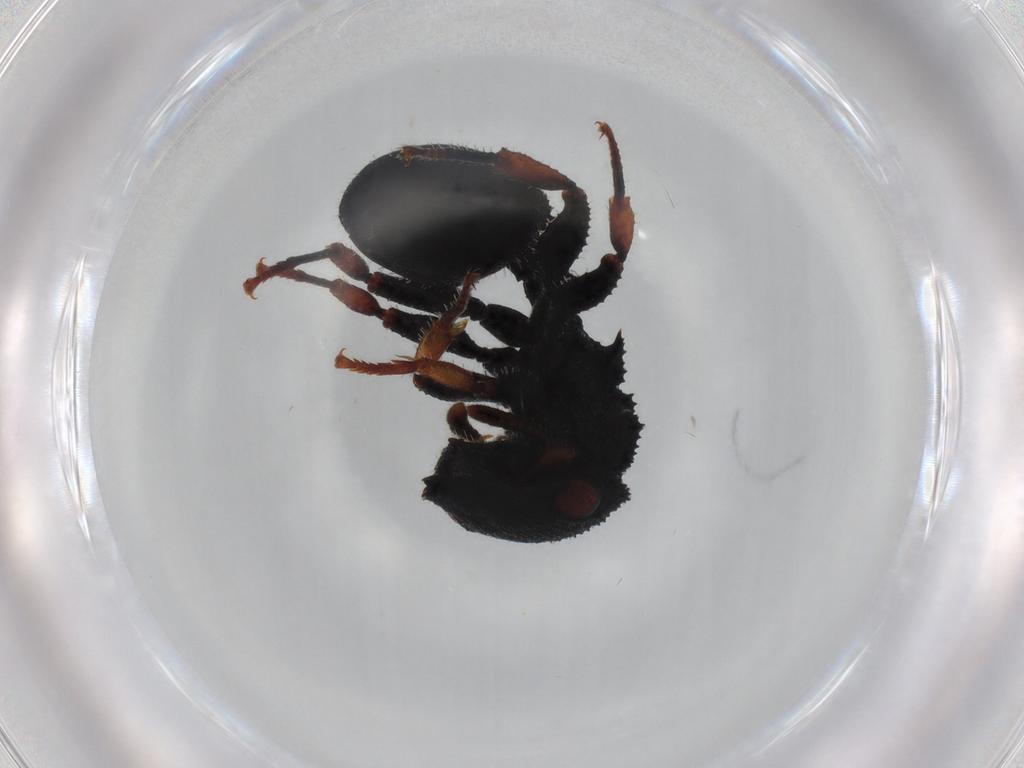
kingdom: Animalia
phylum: Arthropoda
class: Insecta
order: Hymenoptera
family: Formicidae
